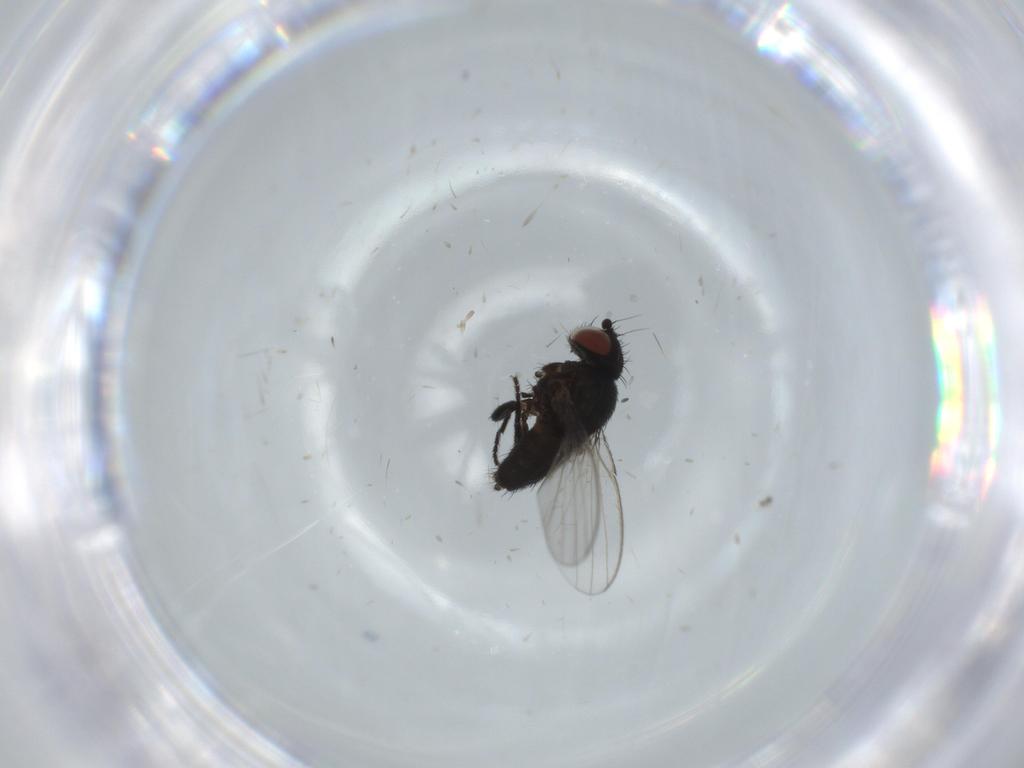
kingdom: Animalia
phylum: Arthropoda
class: Insecta
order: Diptera
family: Milichiidae
